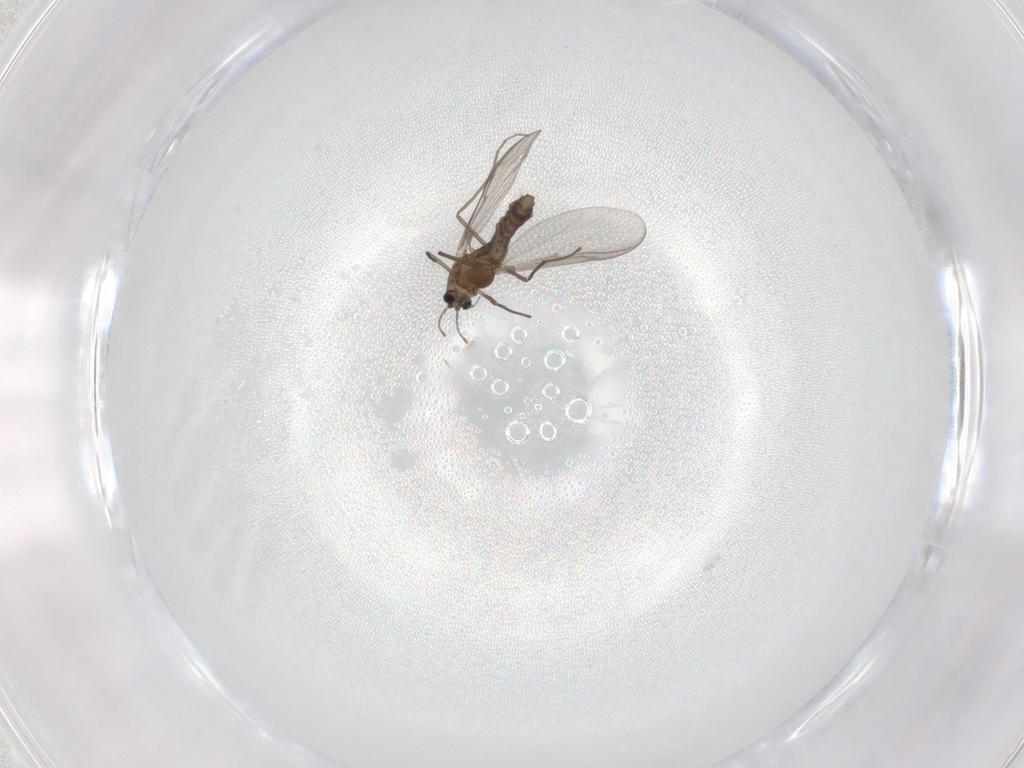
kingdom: Animalia
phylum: Arthropoda
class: Insecta
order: Diptera
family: Chironomidae
